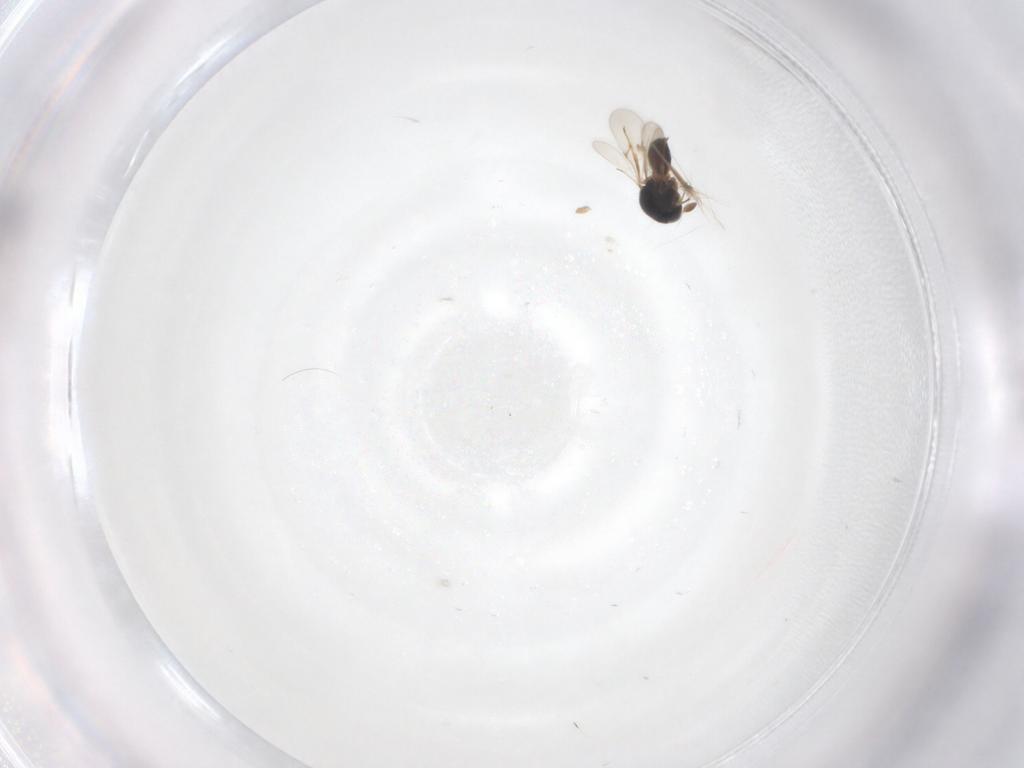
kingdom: Animalia
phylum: Arthropoda
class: Insecta
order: Hymenoptera
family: Scelionidae
